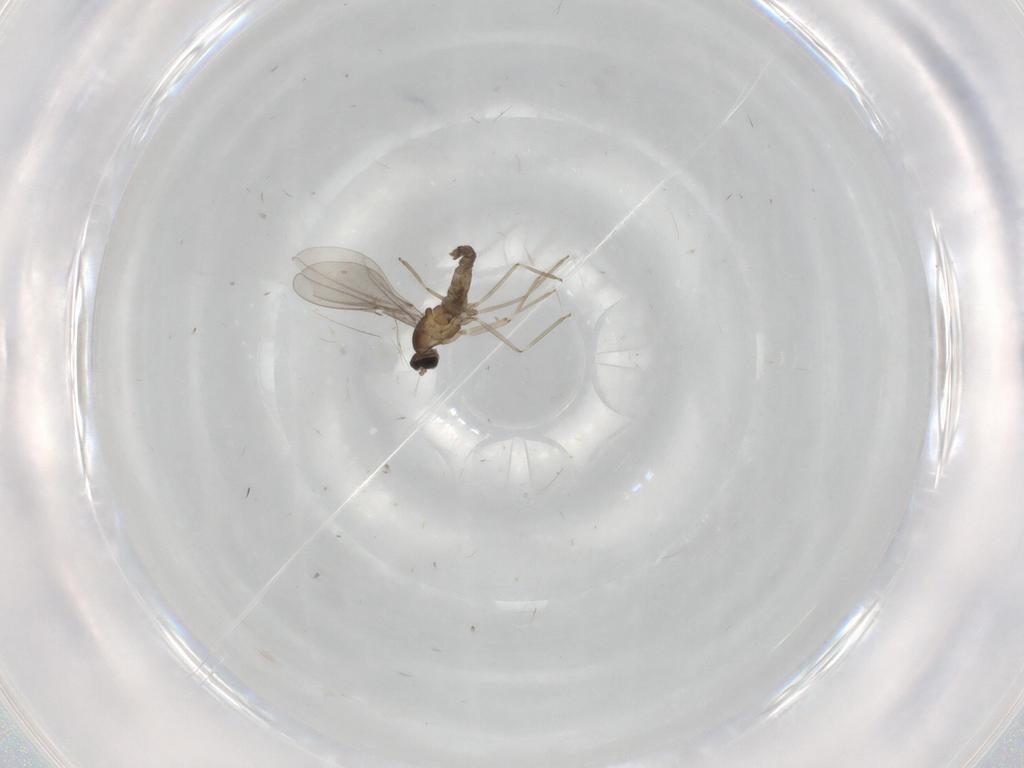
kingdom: Animalia
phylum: Arthropoda
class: Insecta
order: Diptera
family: Cecidomyiidae
